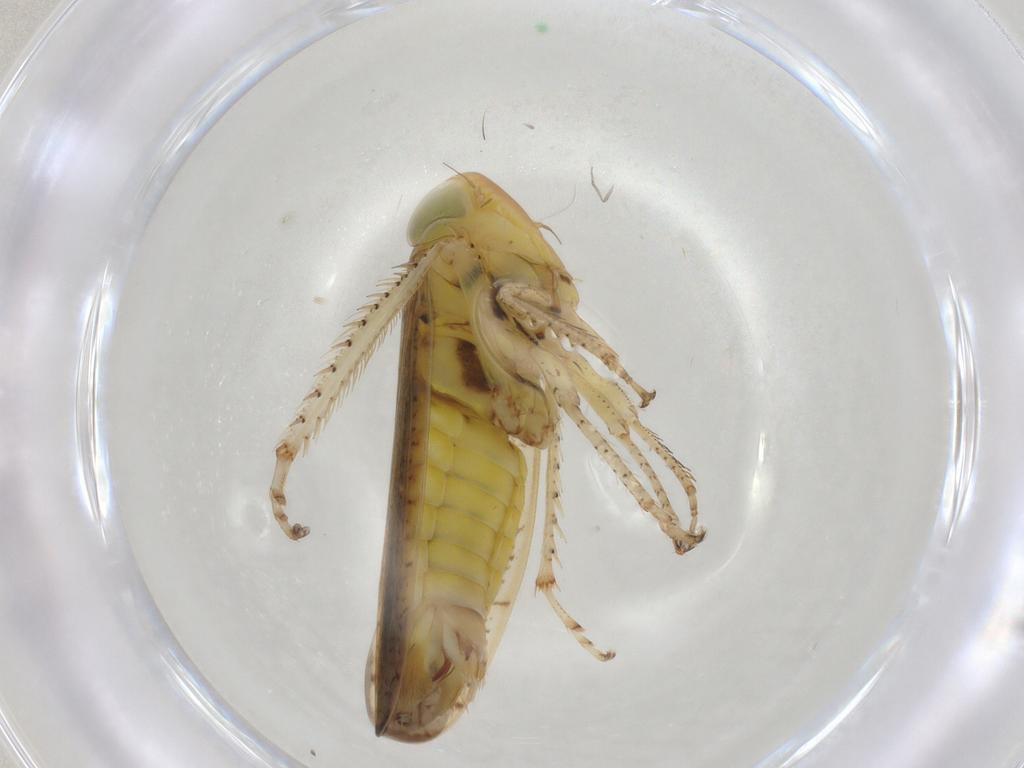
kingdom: Animalia
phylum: Arthropoda
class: Insecta
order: Hemiptera
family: Cicadellidae
